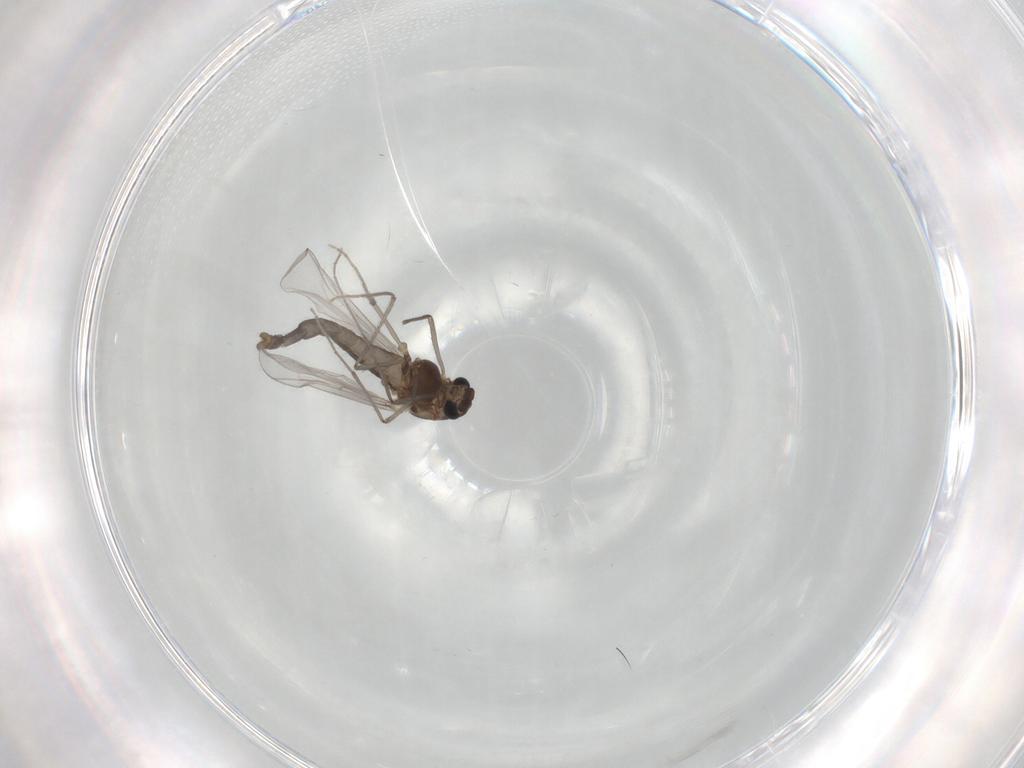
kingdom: Animalia
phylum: Arthropoda
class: Insecta
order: Diptera
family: Chironomidae
